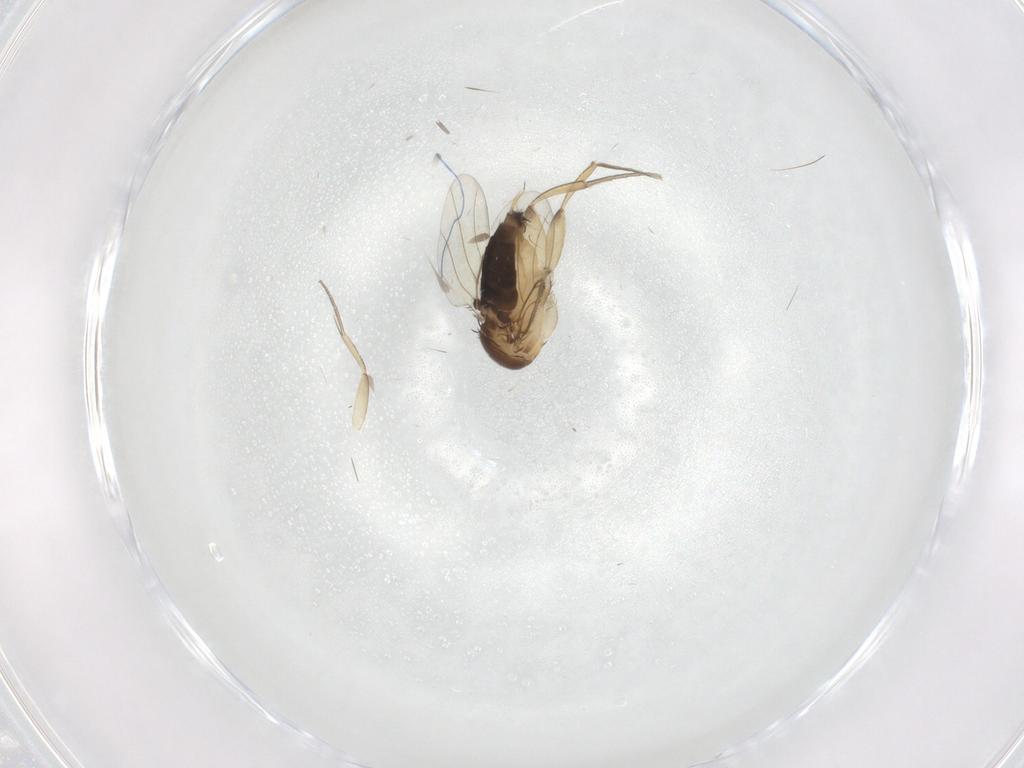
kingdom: Animalia
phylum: Arthropoda
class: Insecta
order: Diptera
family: Phoridae
